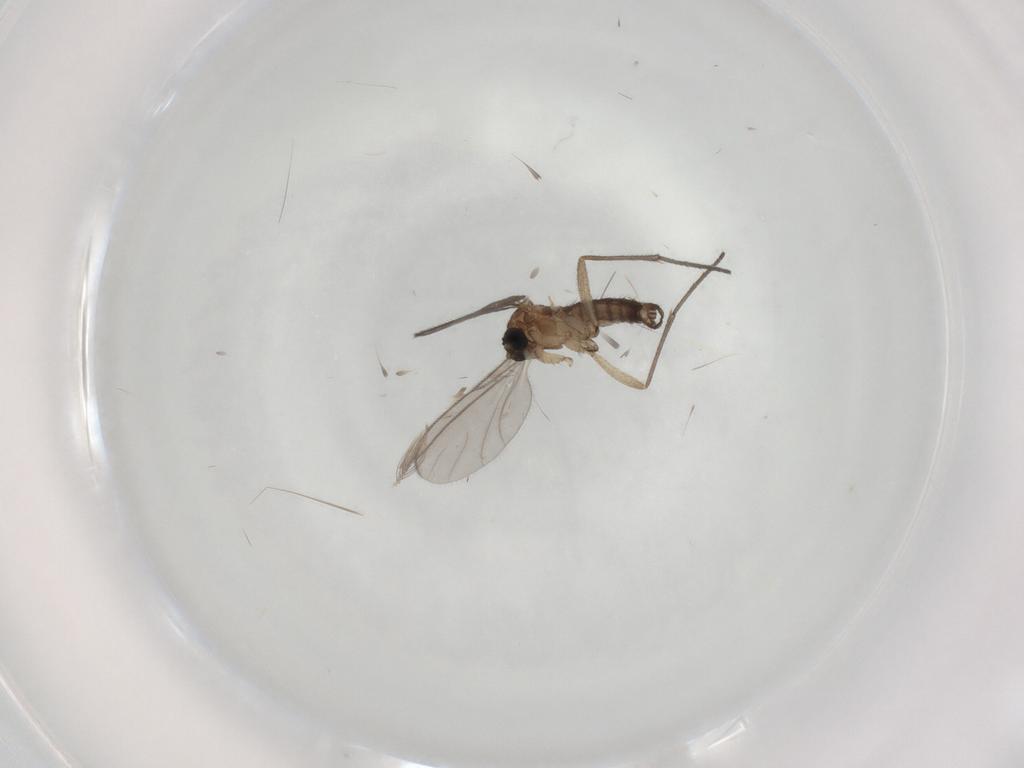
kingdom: Animalia
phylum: Arthropoda
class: Insecta
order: Diptera
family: Sciaridae
